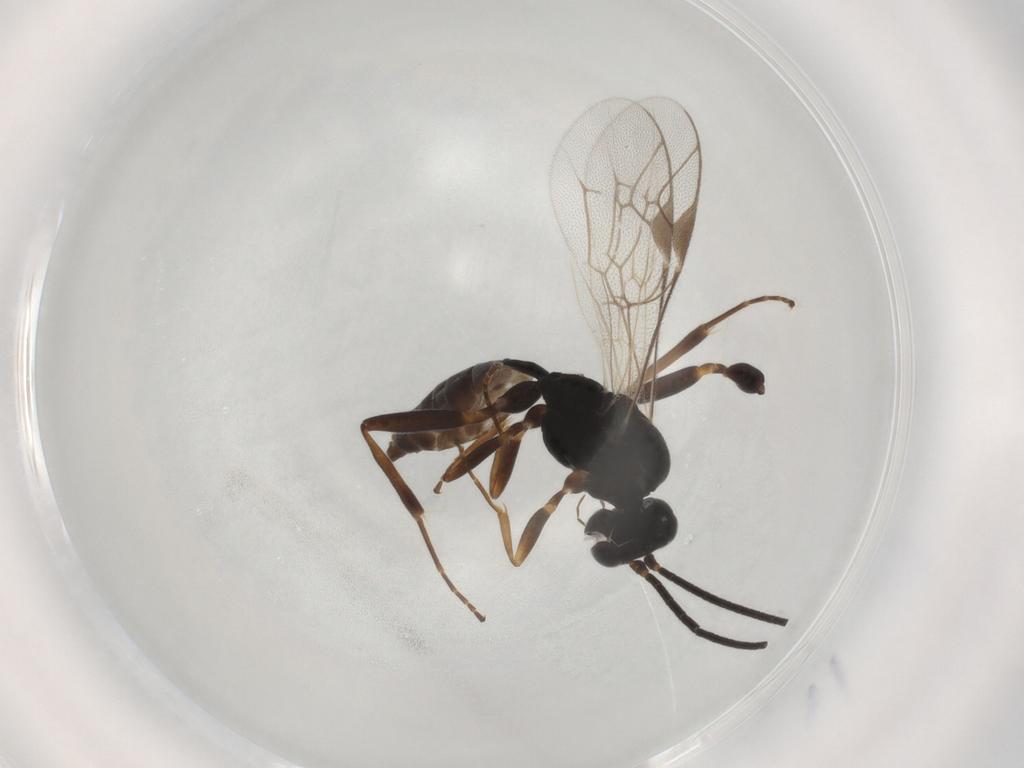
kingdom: Animalia
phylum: Arthropoda
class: Insecta
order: Hymenoptera
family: Ichneumonidae
